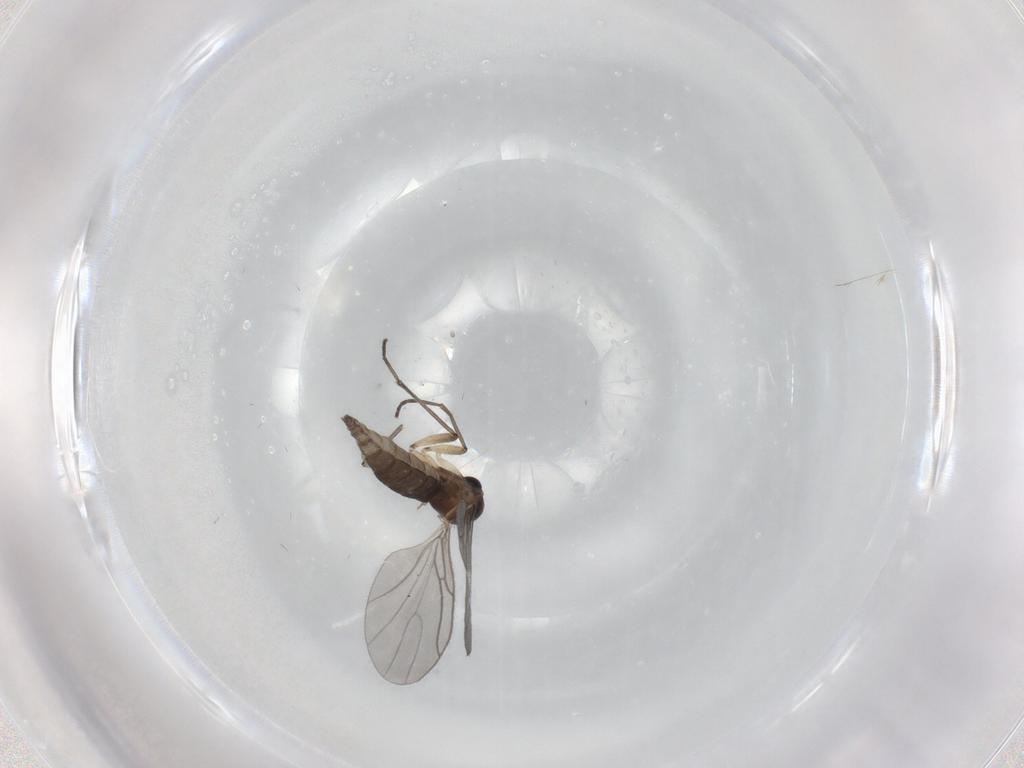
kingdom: Animalia
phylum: Arthropoda
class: Insecta
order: Diptera
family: Sciaridae
